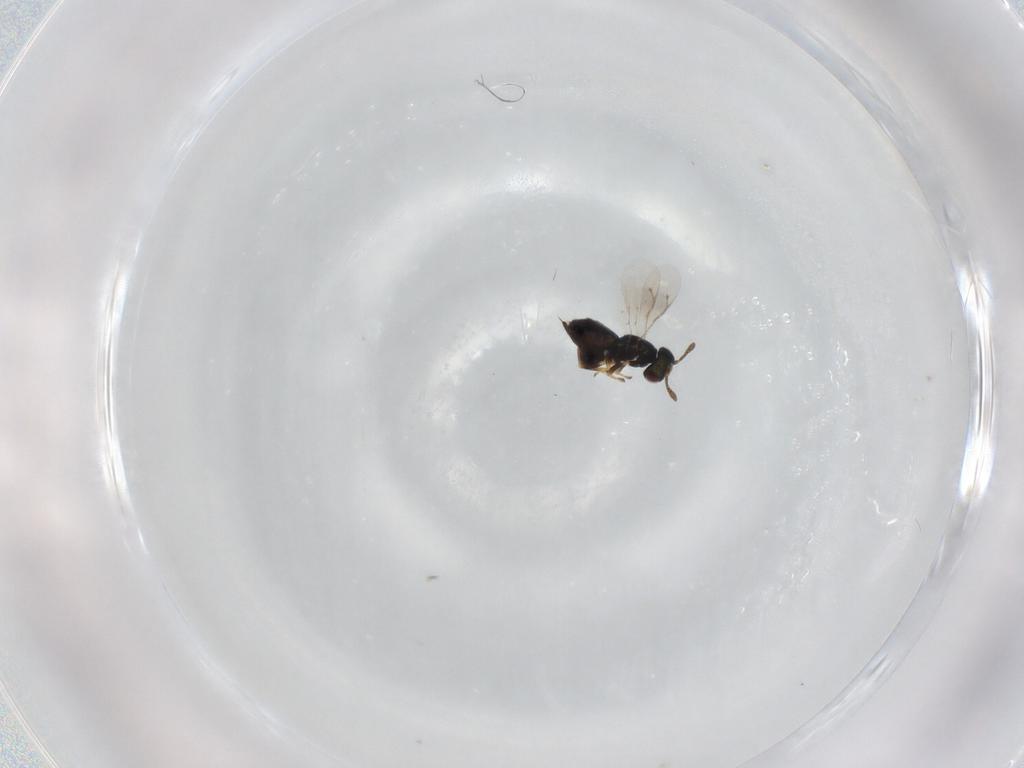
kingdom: Animalia
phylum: Arthropoda
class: Insecta
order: Hymenoptera
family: Pteromalidae
